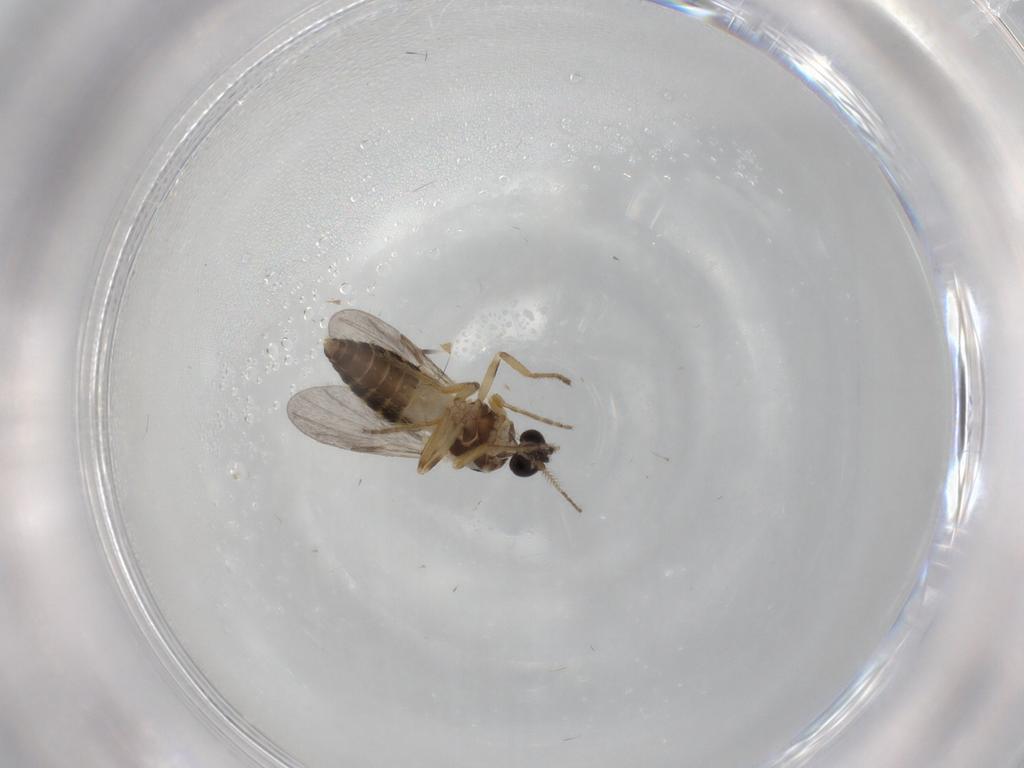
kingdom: Animalia
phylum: Arthropoda
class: Insecta
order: Diptera
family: Ceratopogonidae
